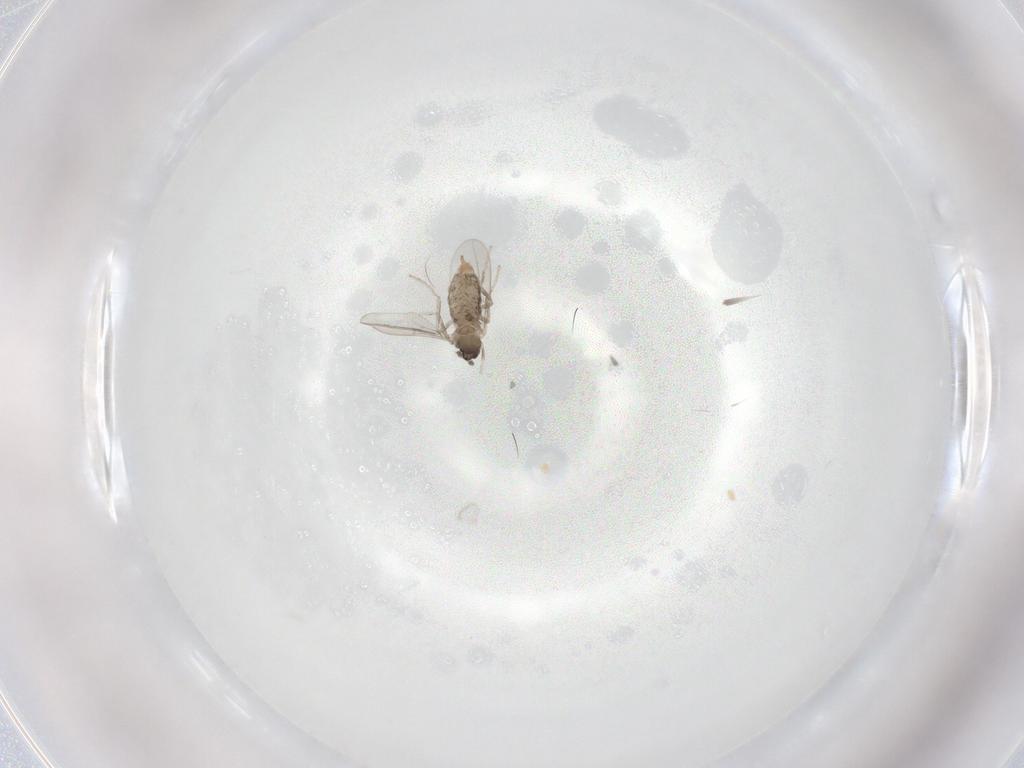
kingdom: Animalia
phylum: Arthropoda
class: Insecta
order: Diptera
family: Cecidomyiidae
